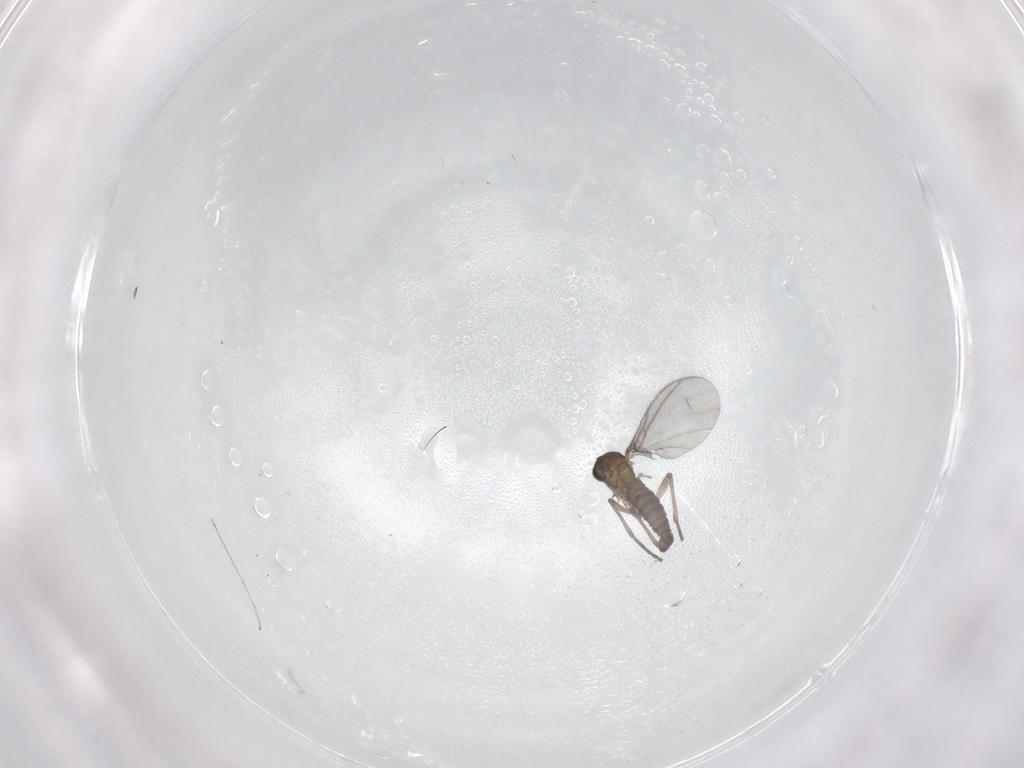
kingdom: Animalia
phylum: Arthropoda
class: Insecta
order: Diptera
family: Sciaridae
